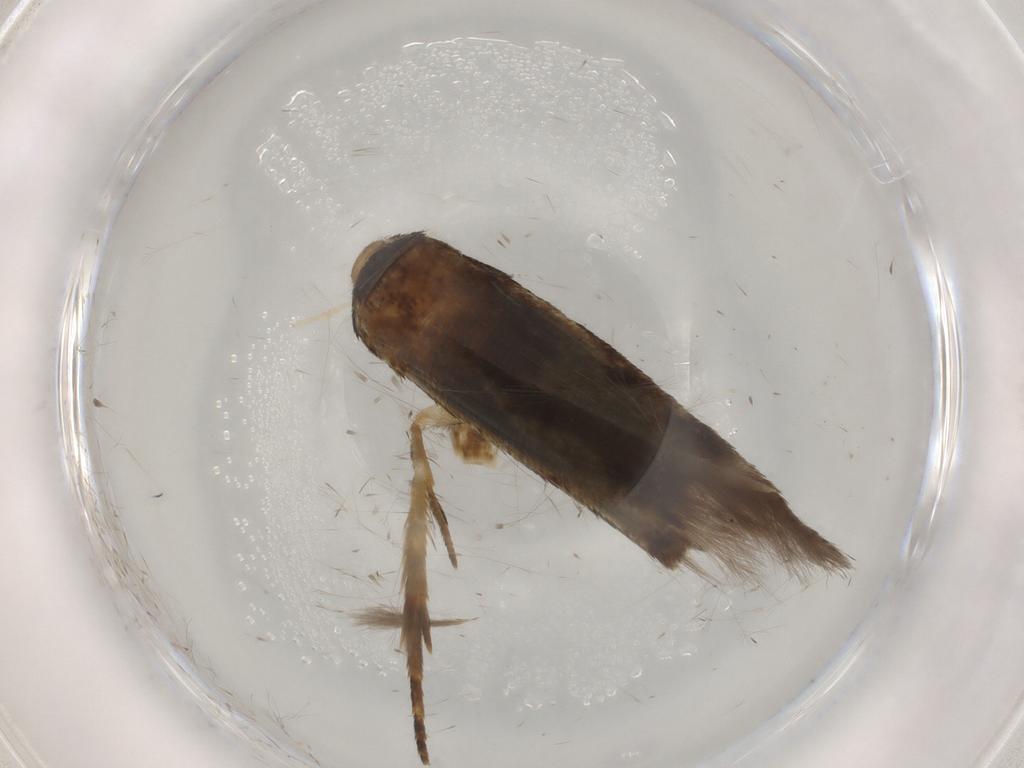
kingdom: Animalia
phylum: Arthropoda
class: Insecta
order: Lepidoptera
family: Cosmopterigidae
